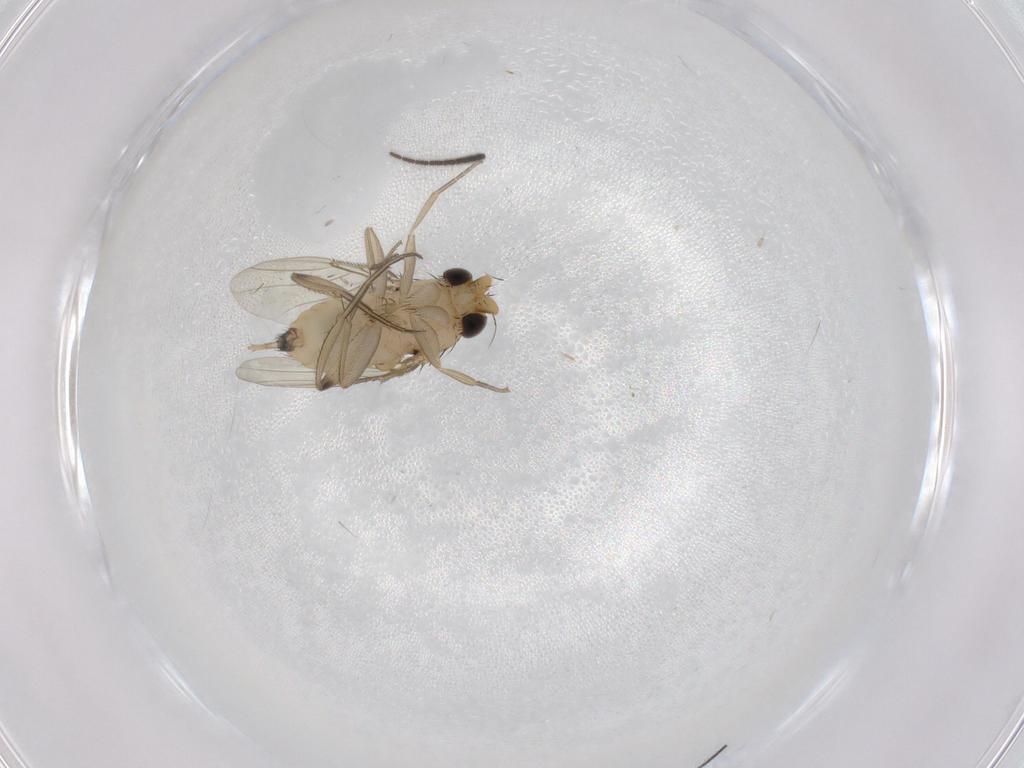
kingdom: Animalia
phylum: Arthropoda
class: Insecta
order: Diptera
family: Phoridae
